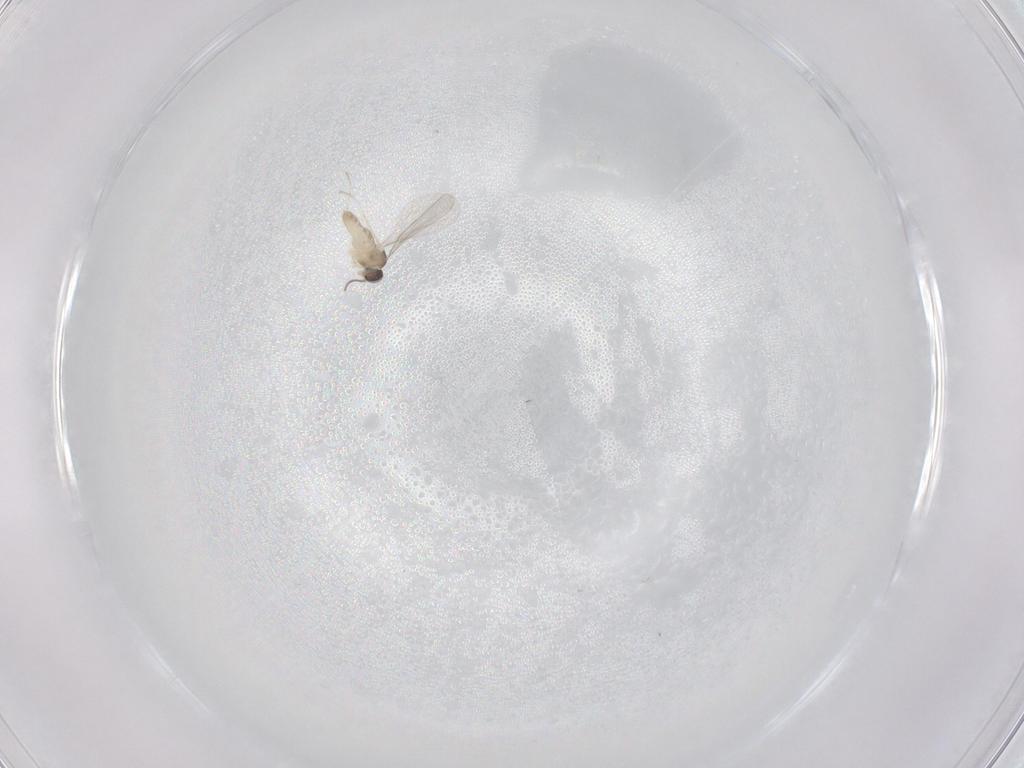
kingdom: Animalia
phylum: Arthropoda
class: Insecta
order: Diptera
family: Cecidomyiidae
